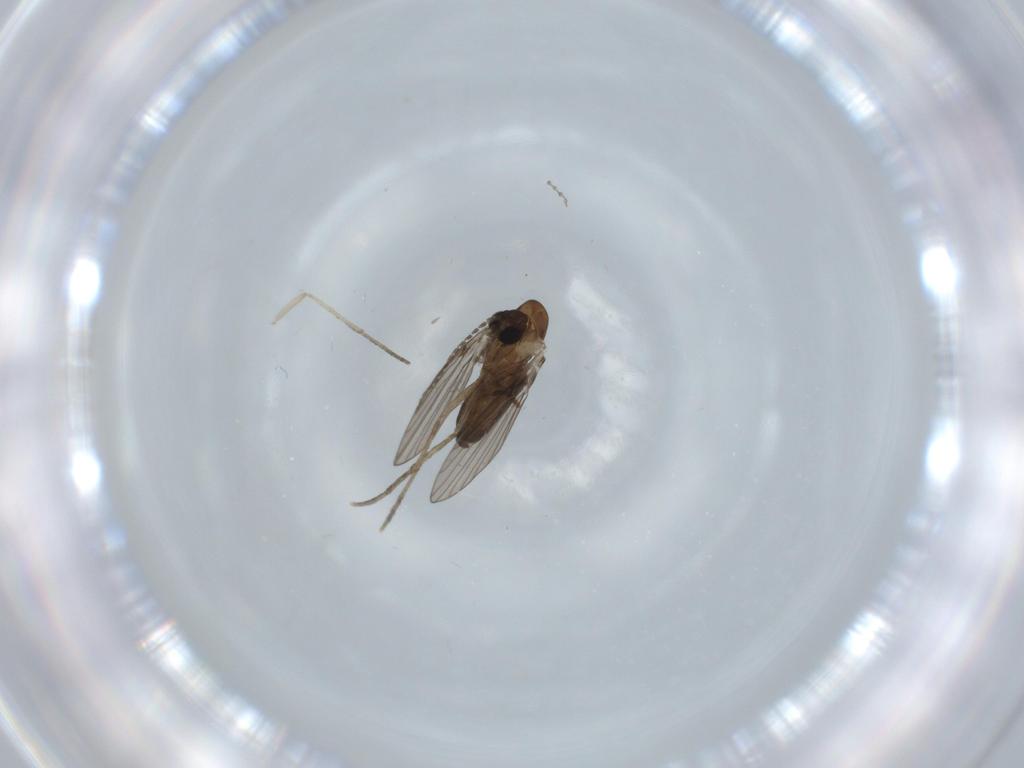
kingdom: Animalia
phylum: Arthropoda
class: Insecta
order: Diptera
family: Psychodidae
